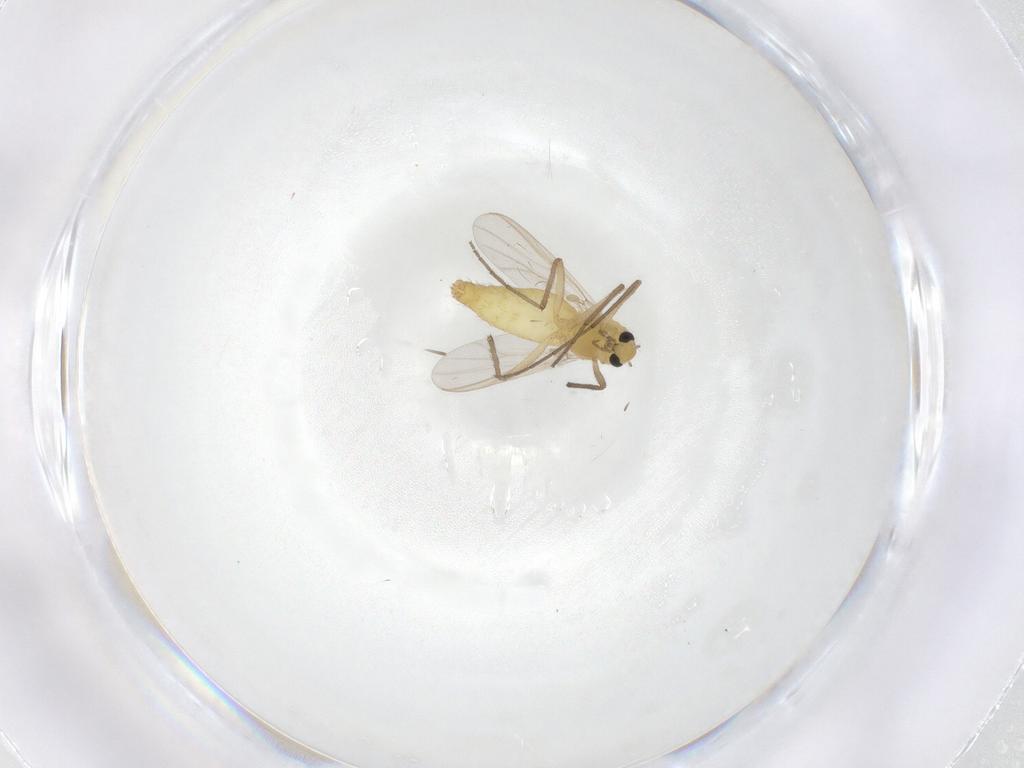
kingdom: Animalia
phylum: Arthropoda
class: Insecta
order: Diptera
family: Chironomidae
